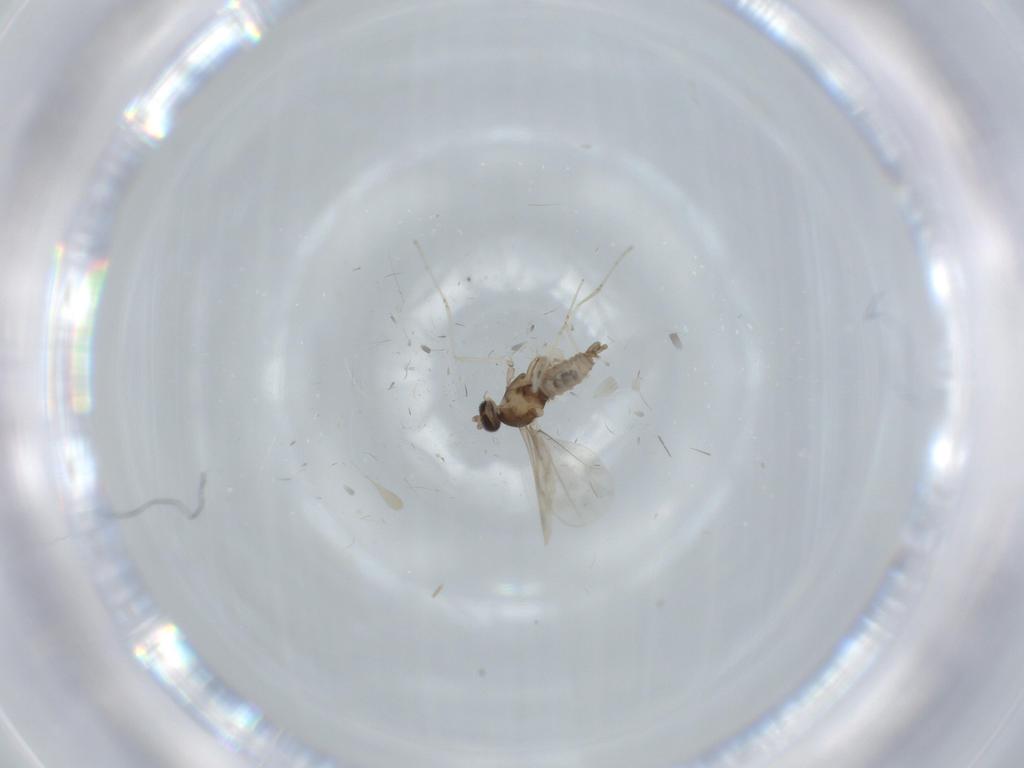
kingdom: Animalia
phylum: Arthropoda
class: Insecta
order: Diptera
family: Cecidomyiidae
